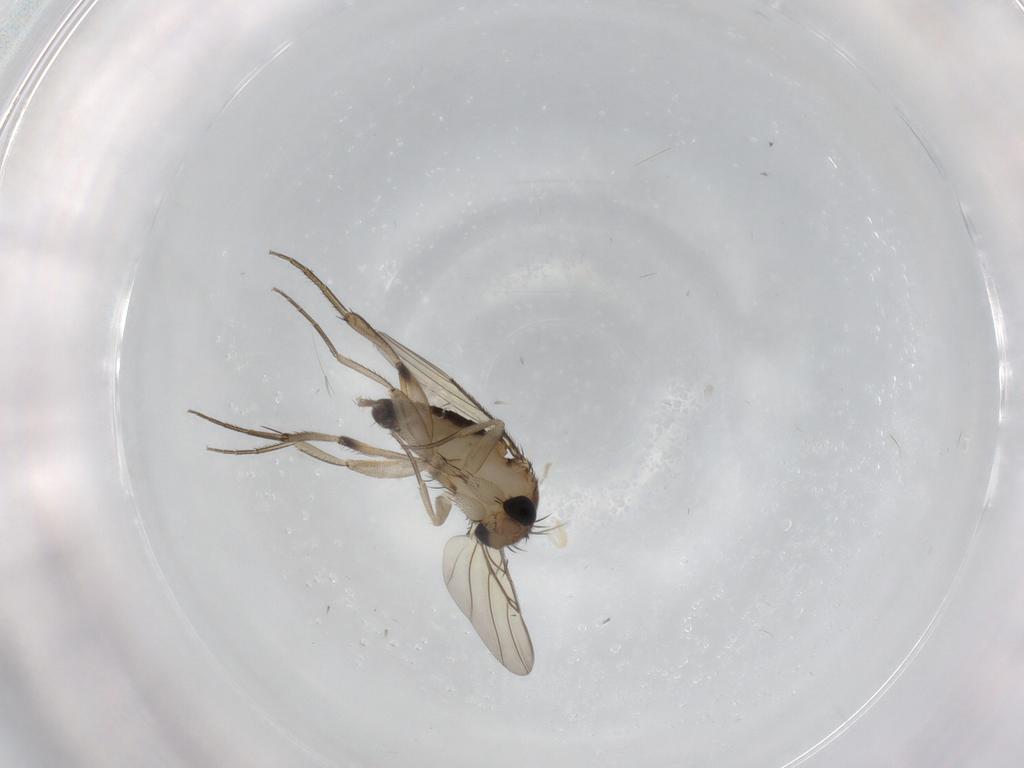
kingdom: Animalia
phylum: Arthropoda
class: Insecta
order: Diptera
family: Phoridae
